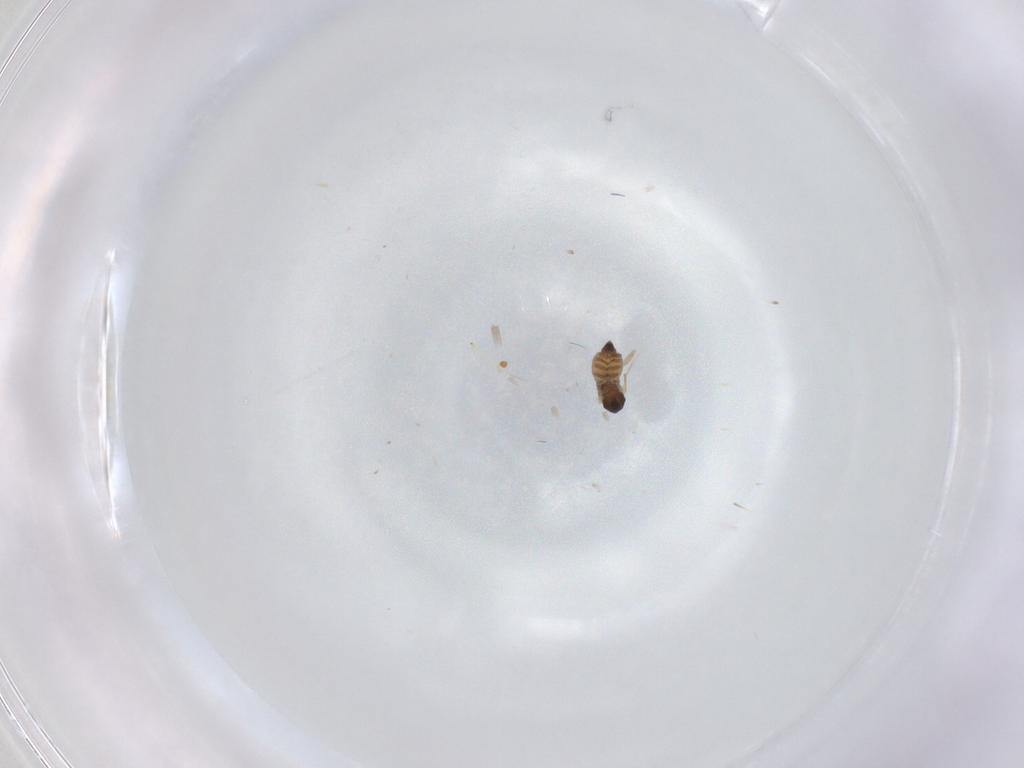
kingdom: Animalia
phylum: Arthropoda
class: Insecta
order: Diptera
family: Cecidomyiidae
